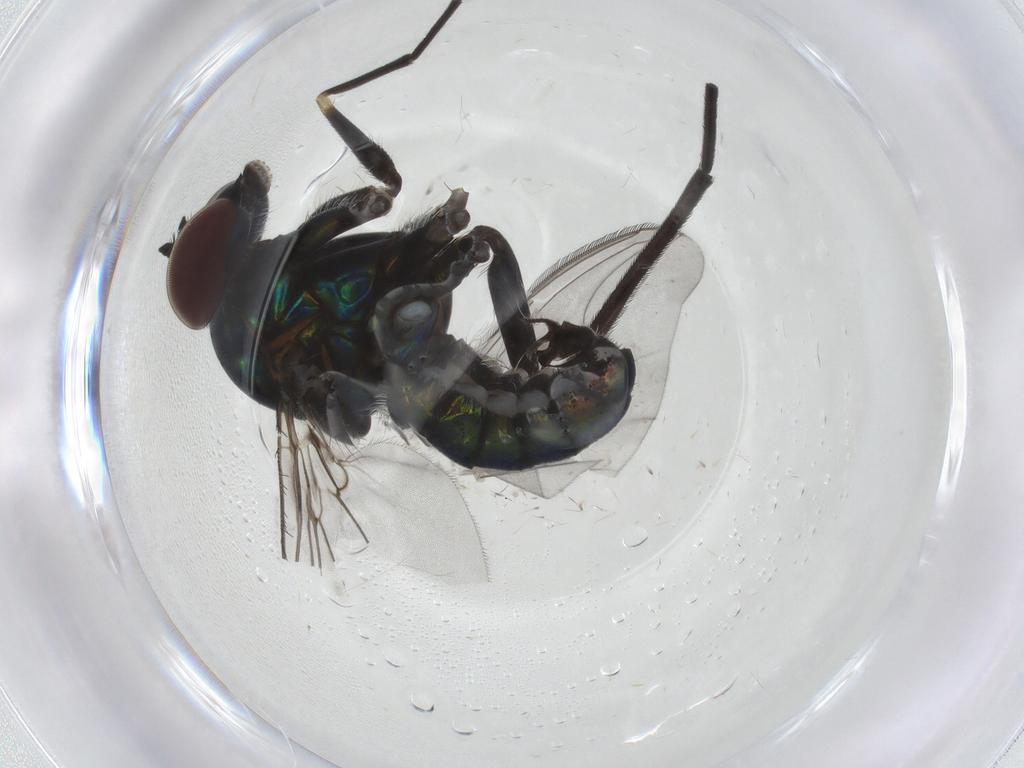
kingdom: Animalia
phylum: Arthropoda
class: Insecta
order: Diptera
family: Dolichopodidae
